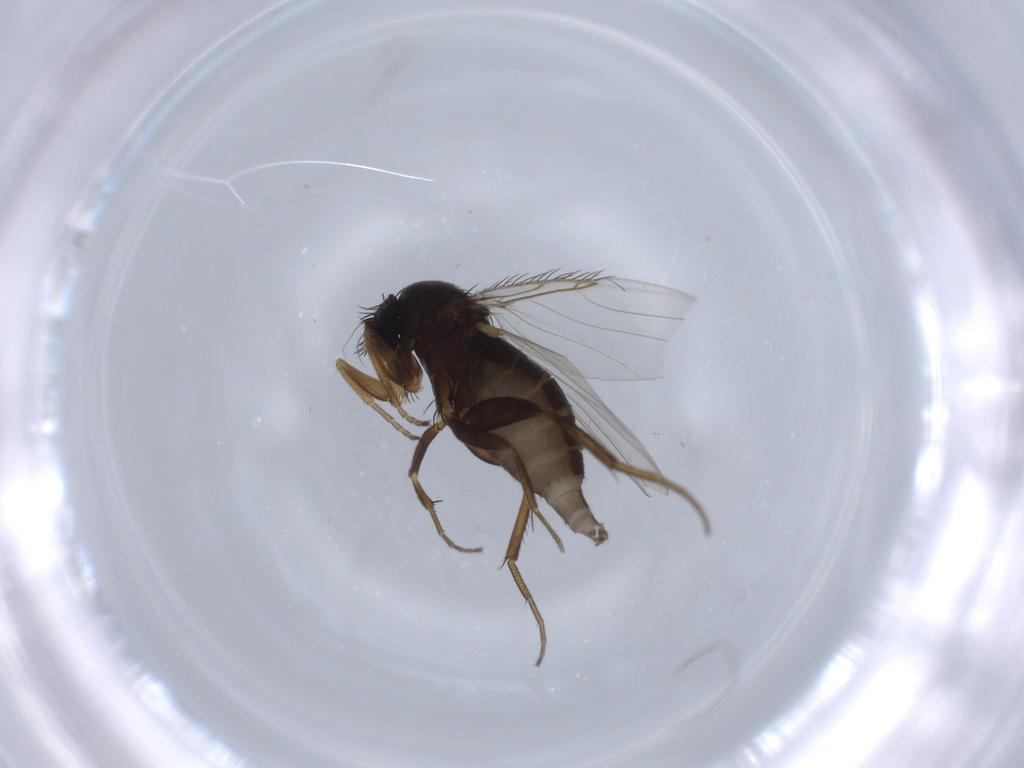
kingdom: Animalia
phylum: Arthropoda
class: Insecta
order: Diptera
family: Phoridae
